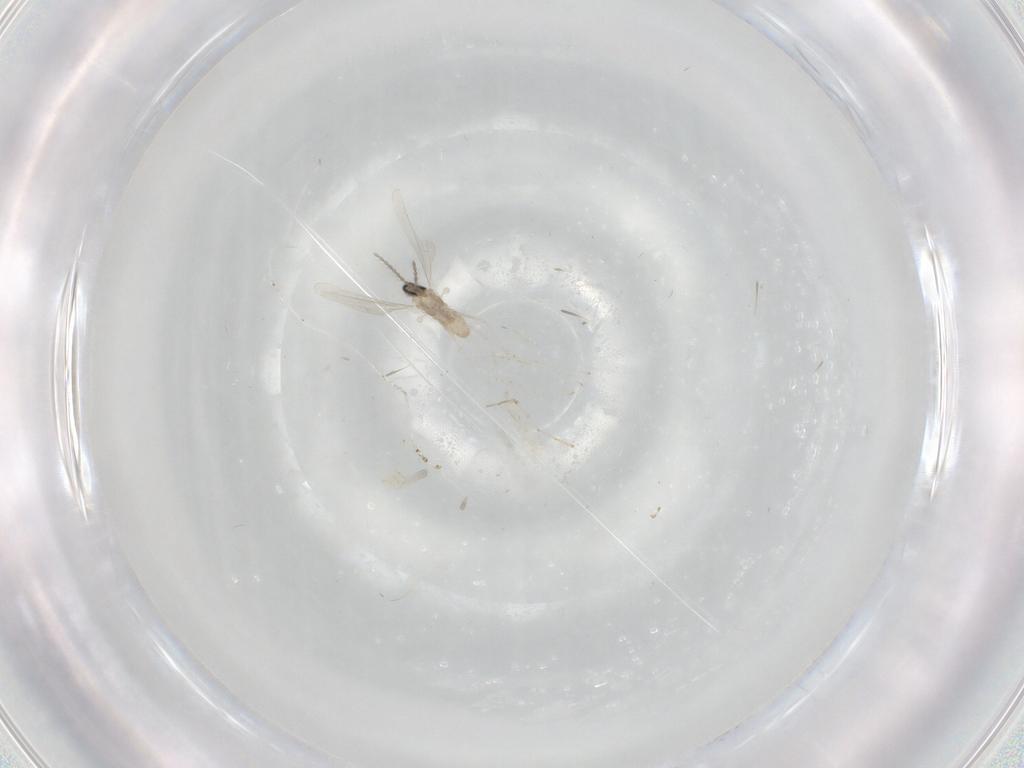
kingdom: Animalia
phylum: Arthropoda
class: Insecta
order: Diptera
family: Cecidomyiidae
